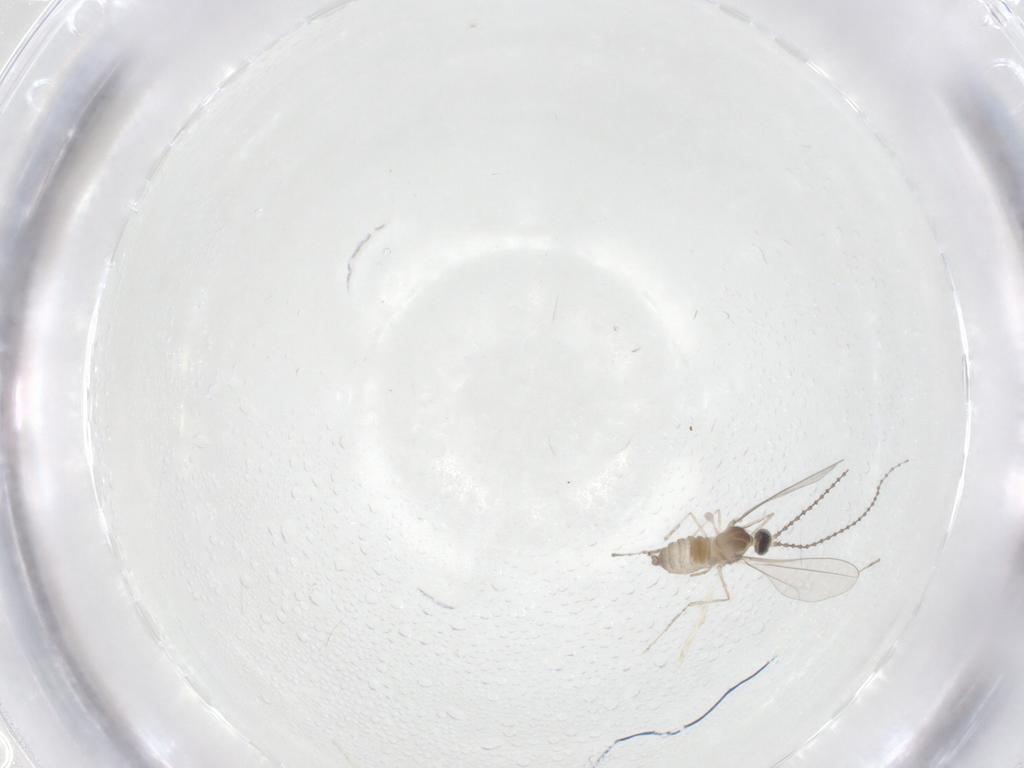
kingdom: Animalia
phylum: Arthropoda
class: Insecta
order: Diptera
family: Cecidomyiidae
